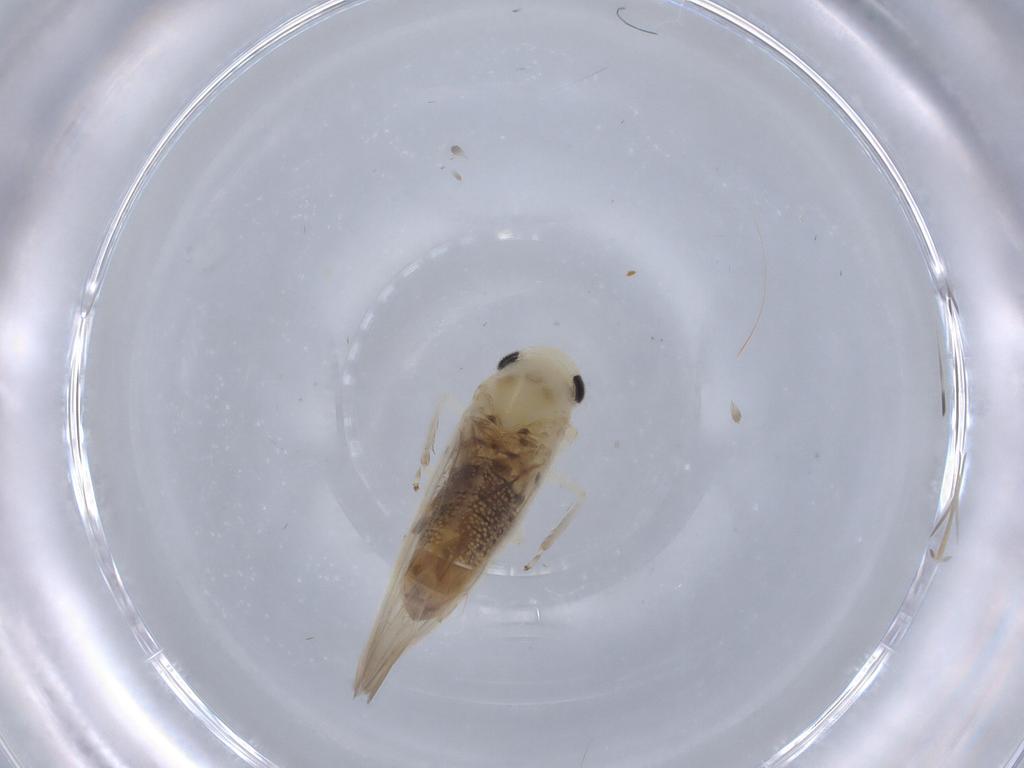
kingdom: Animalia
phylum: Arthropoda
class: Insecta
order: Hemiptera
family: Cicadellidae
